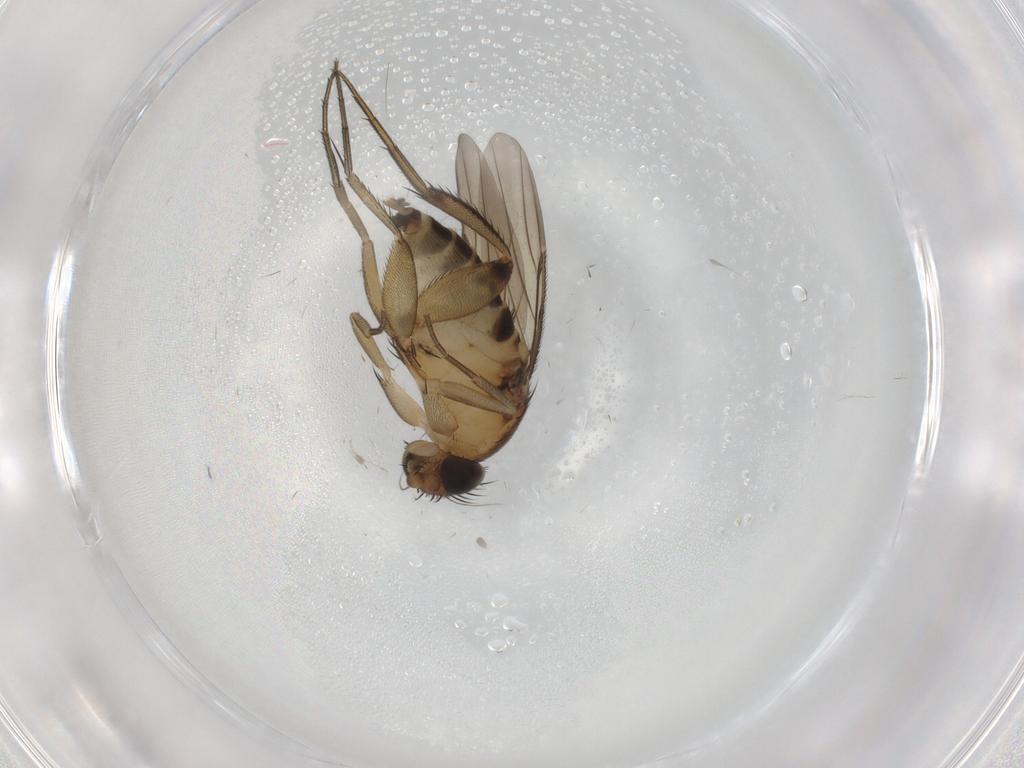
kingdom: Animalia
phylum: Arthropoda
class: Insecta
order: Diptera
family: Phoridae
